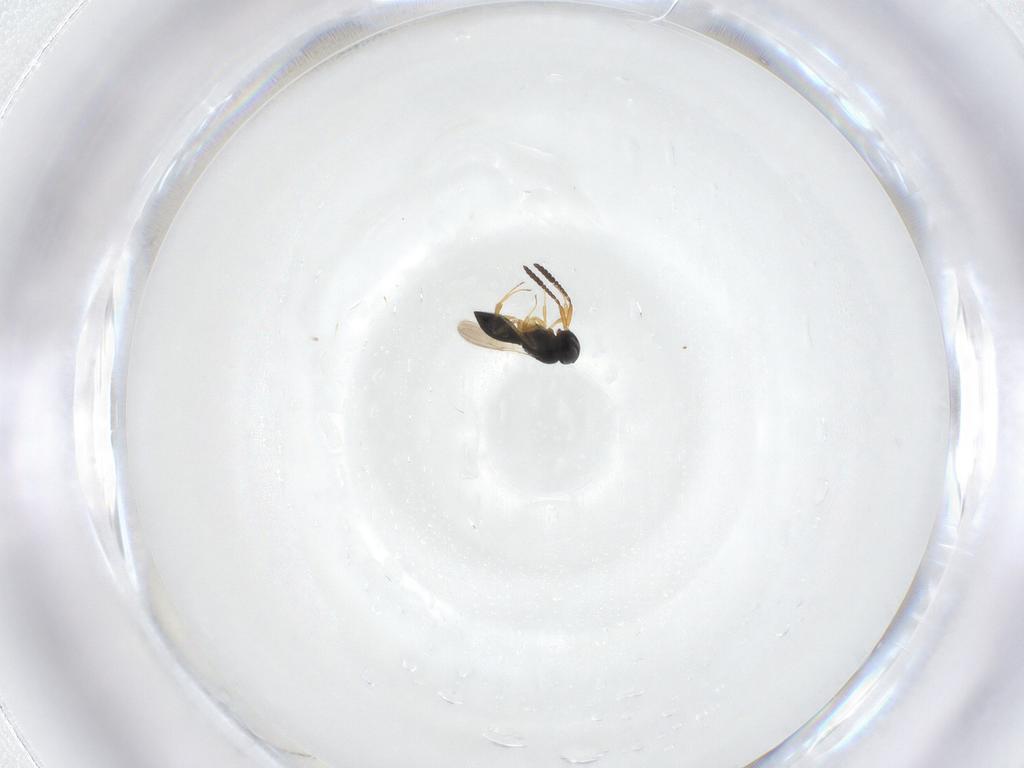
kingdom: Animalia
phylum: Arthropoda
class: Insecta
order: Hymenoptera
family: Scelionidae
